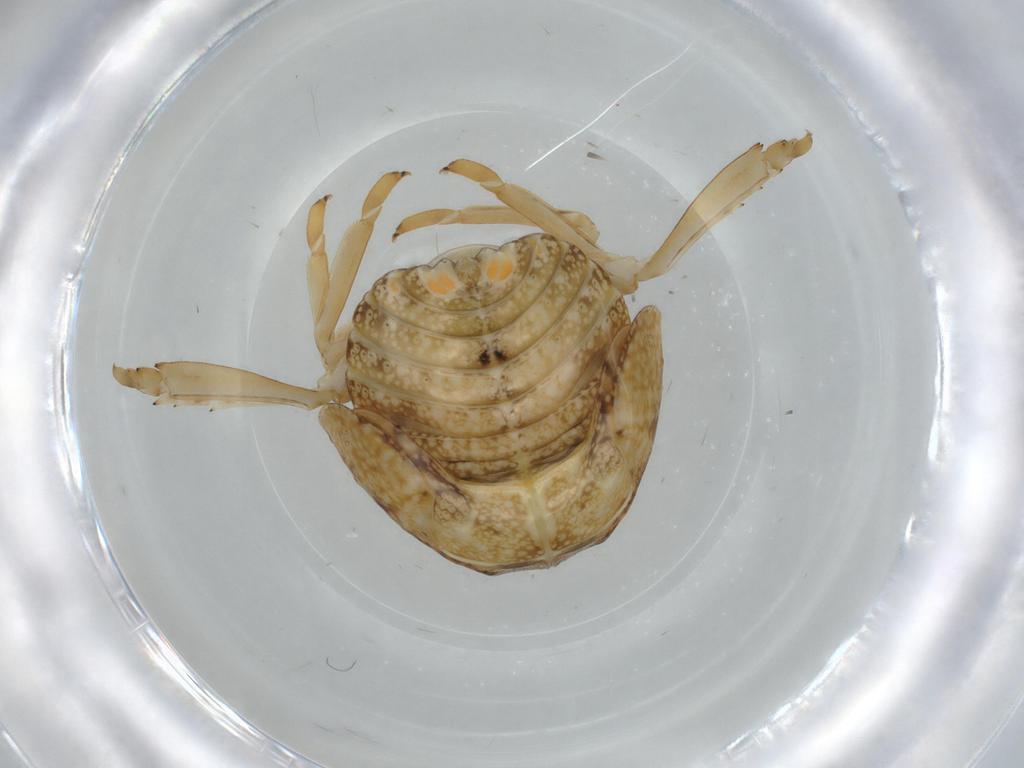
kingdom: Animalia
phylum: Arthropoda
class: Insecta
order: Hemiptera
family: Acanaloniidae
